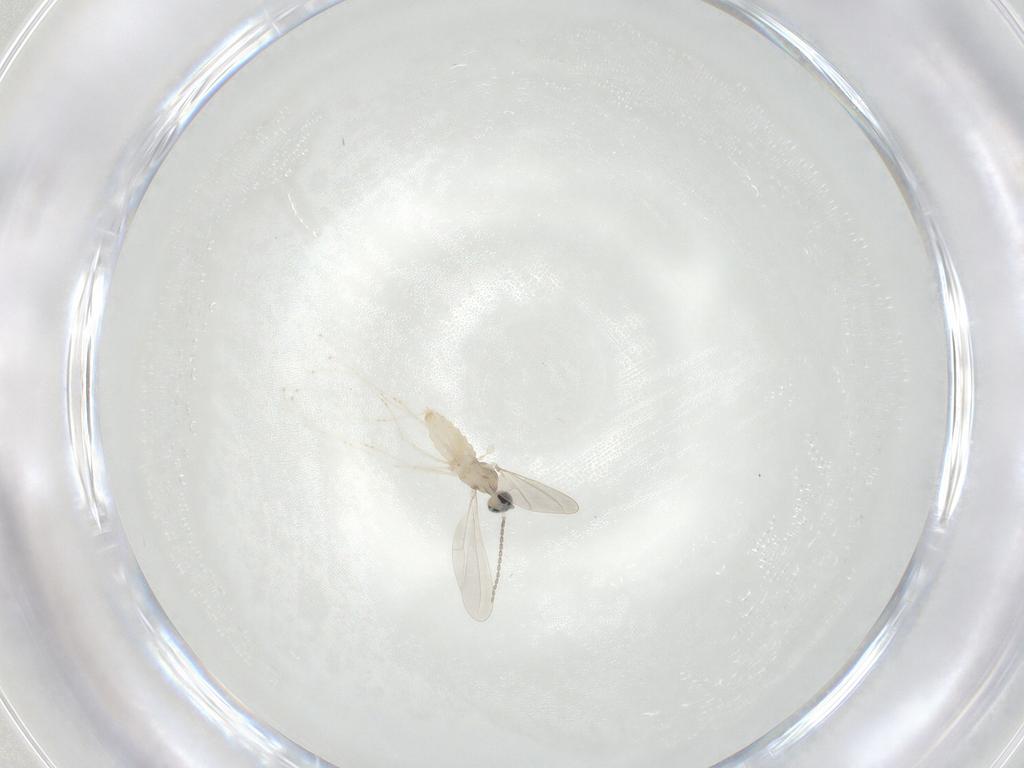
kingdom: Animalia
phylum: Arthropoda
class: Insecta
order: Diptera
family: Cecidomyiidae
